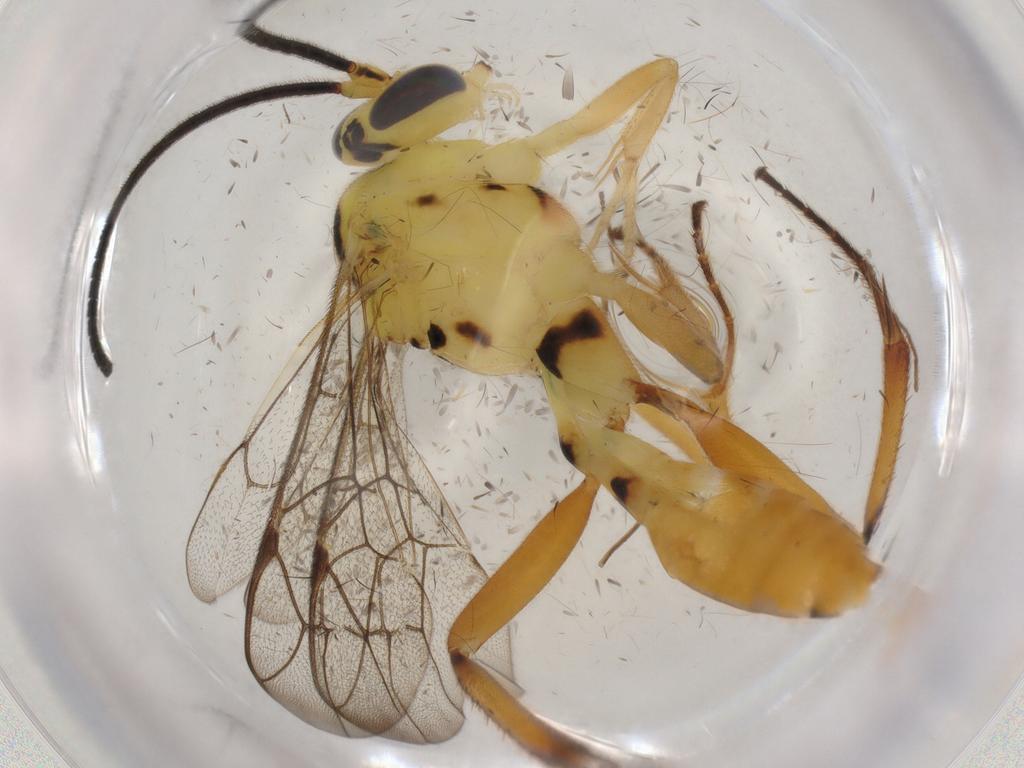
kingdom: Animalia
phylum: Arthropoda
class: Insecta
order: Hymenoptera
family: Ichneumonidae
